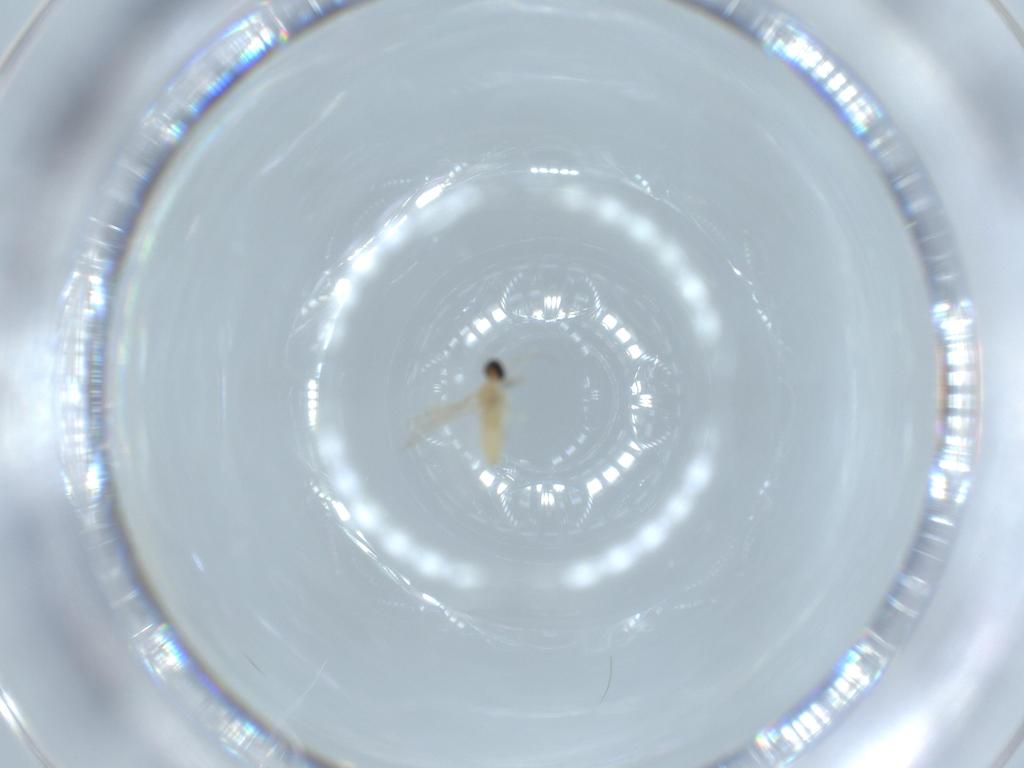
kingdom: Animalia
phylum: Arthropoda
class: Insecta
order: Diptera
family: Cecidomyiidae
